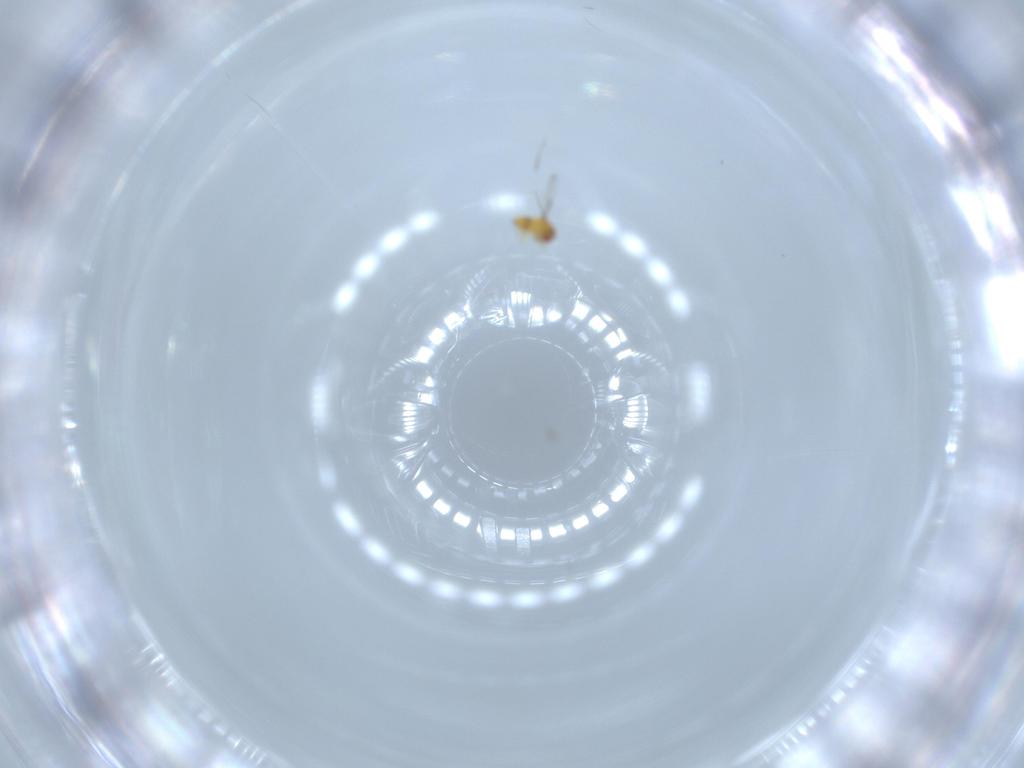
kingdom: Animalia
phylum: Arthropoda
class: Insecta
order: Hymenoptera
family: Trichogrammatidae
